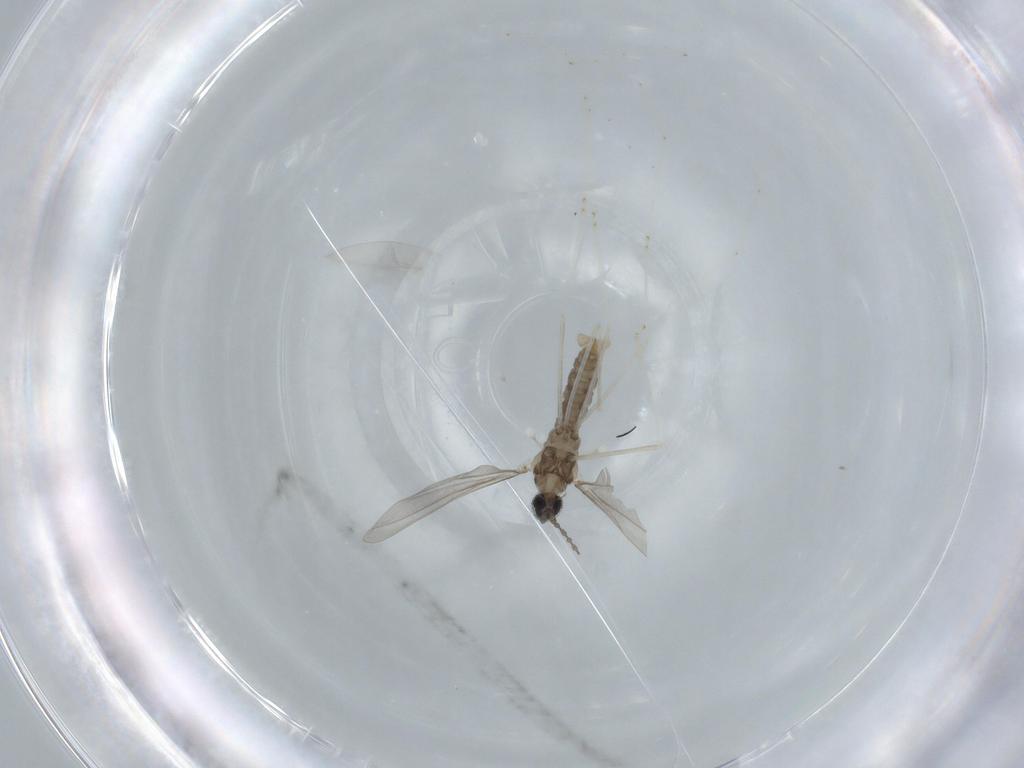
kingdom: Animalia
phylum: Arthropoda
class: Insecta
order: Diptera
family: Cecidomyiidae
